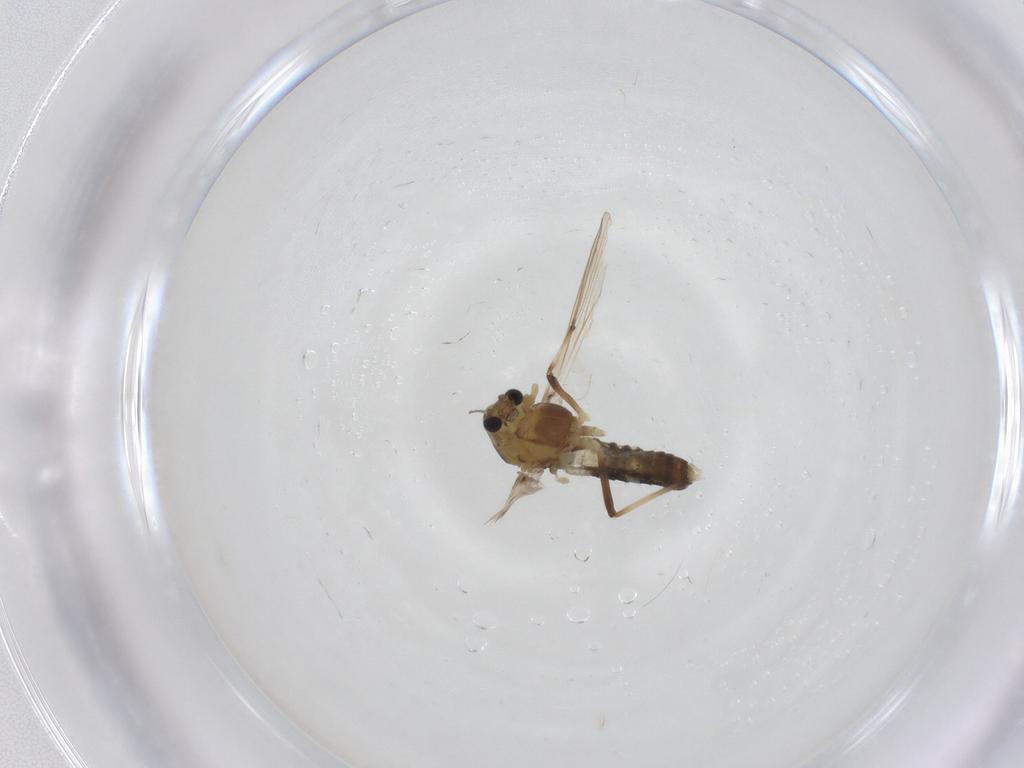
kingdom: Animalia
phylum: Arthropoda
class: Insecta
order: Diptera
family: Chironomidae
